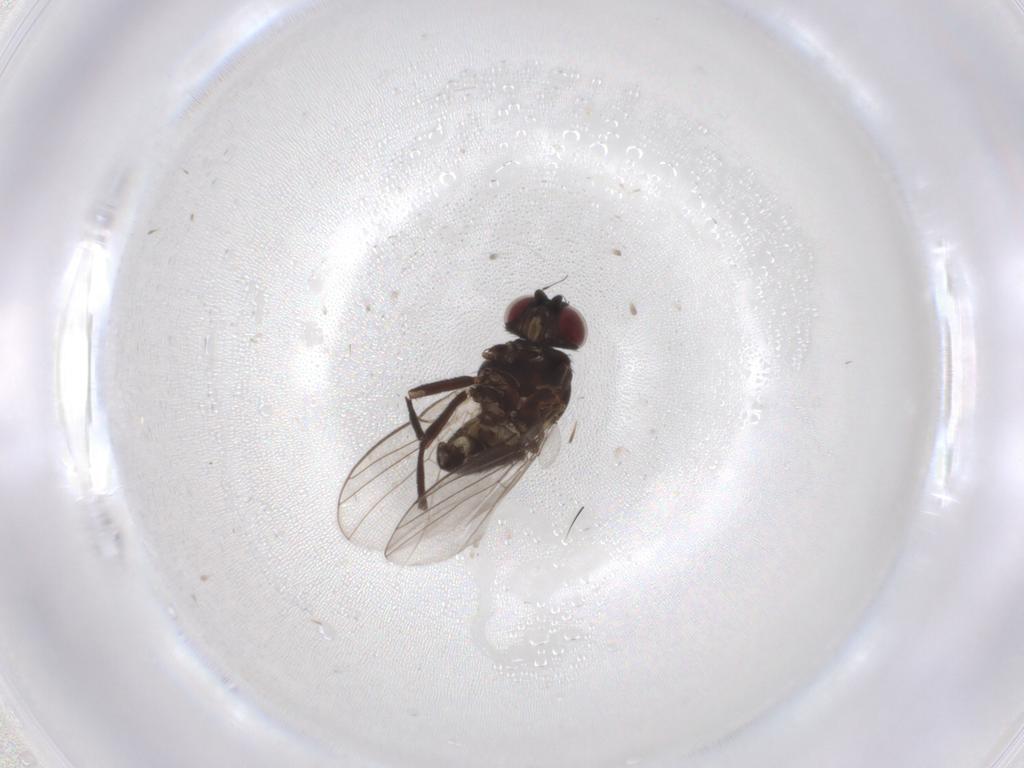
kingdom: Animalia
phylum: Arthropoda
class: Insecta
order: Diptera
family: Agromyzidae
